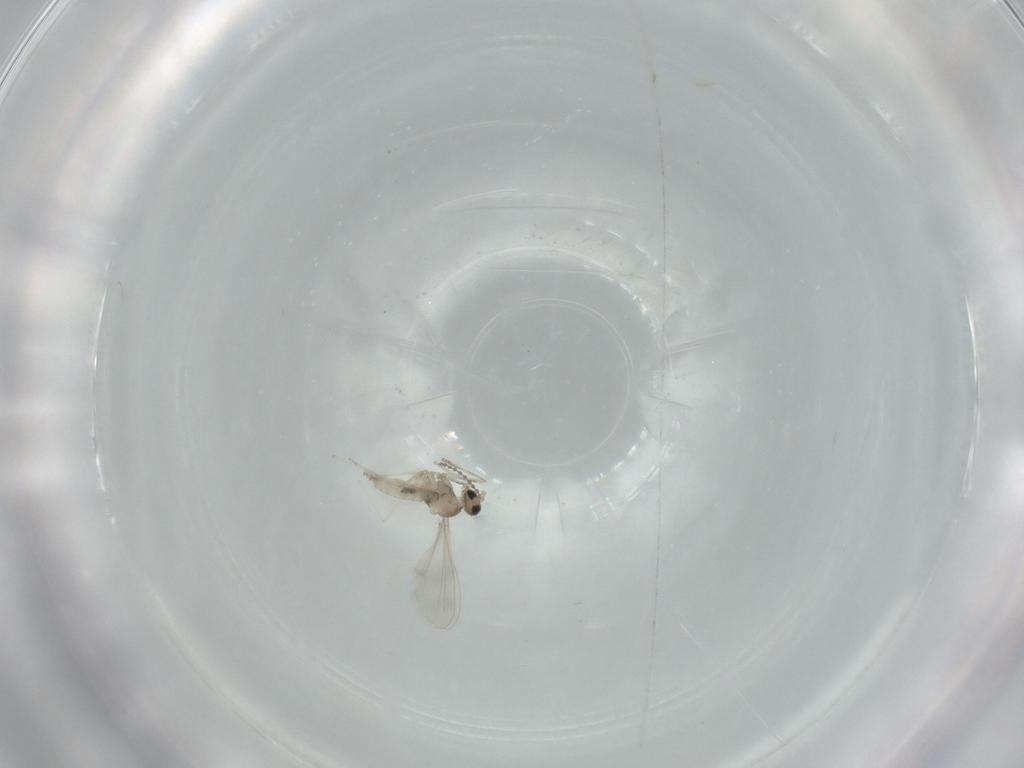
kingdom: Animalia
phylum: Arthropoda
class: Insecta
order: Diptera
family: Cecidomyiidae
